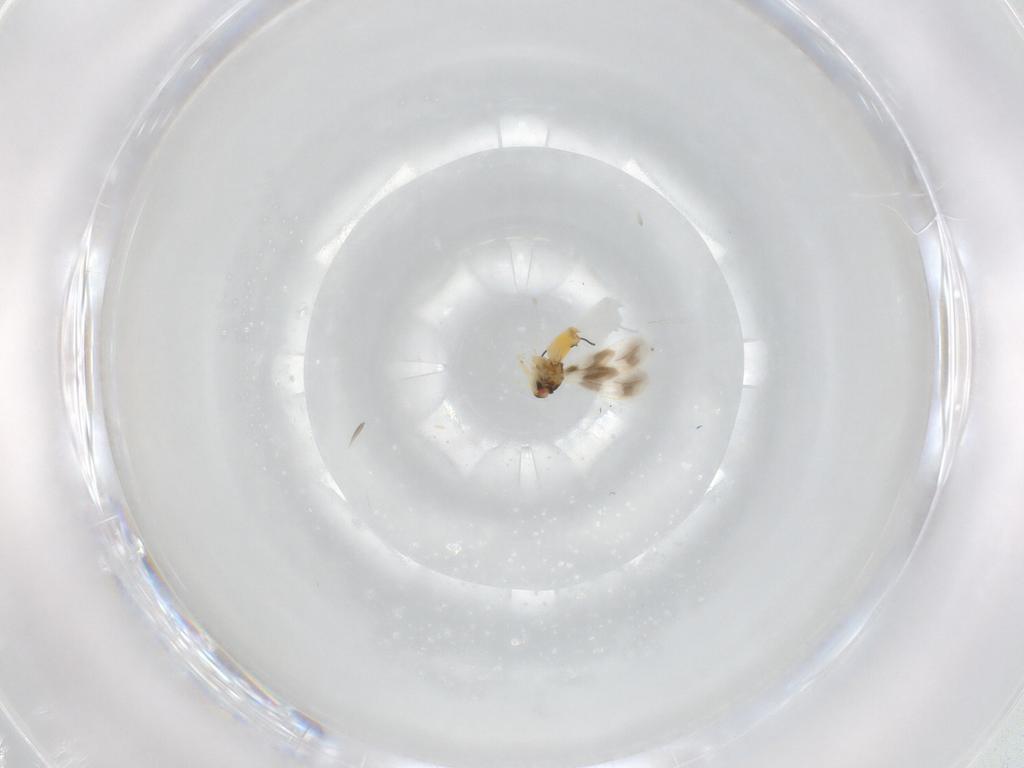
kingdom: Animalia
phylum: Arthropoda
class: Insecta
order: Hemiptera
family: Aleyrodidae
